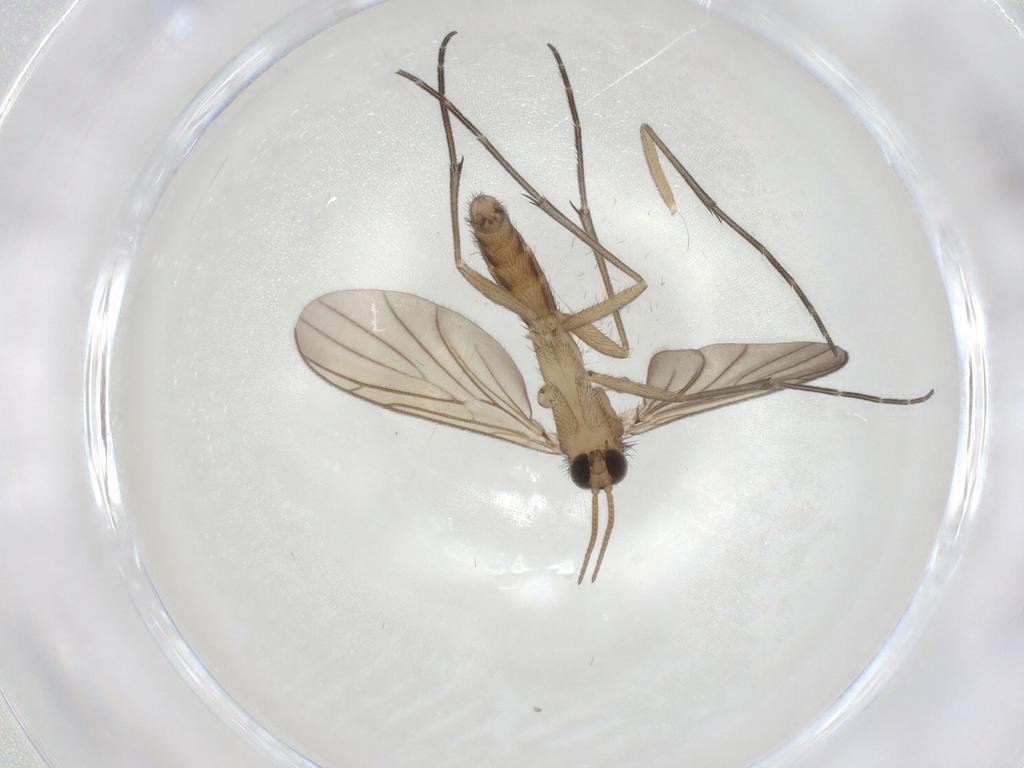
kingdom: Animalia
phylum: Arthropoda
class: Insecta
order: Diptera
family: Keroplatidae
